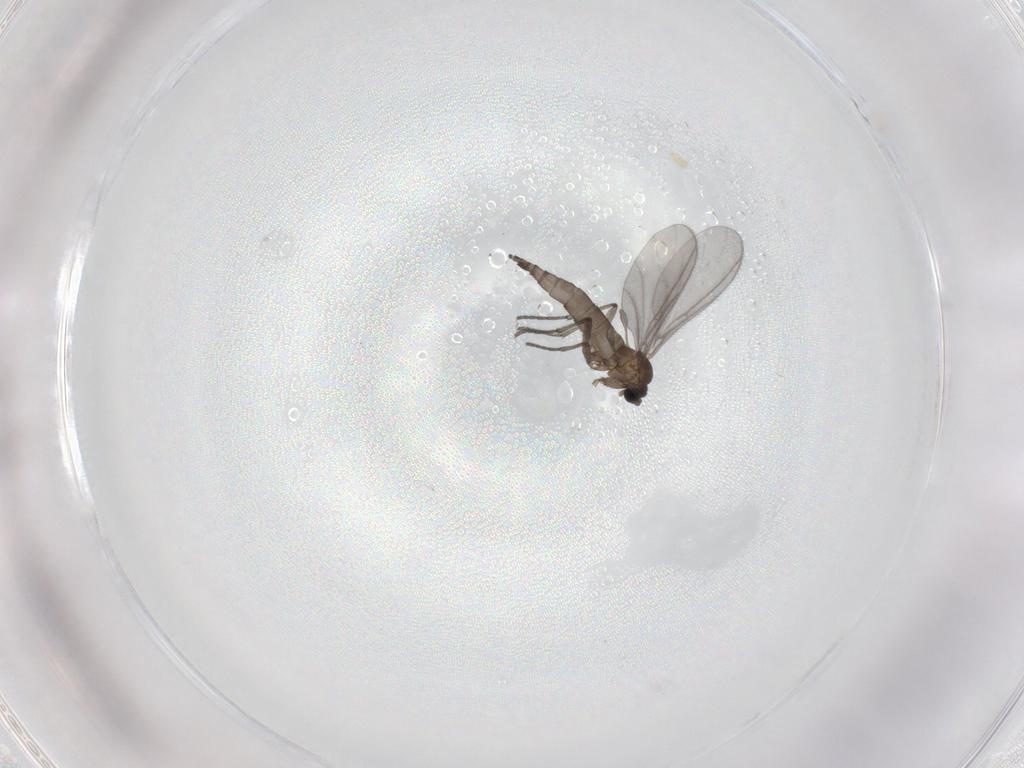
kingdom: Animalia
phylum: Arthropoda
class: Insecta
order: Diptera
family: Sciaridae
